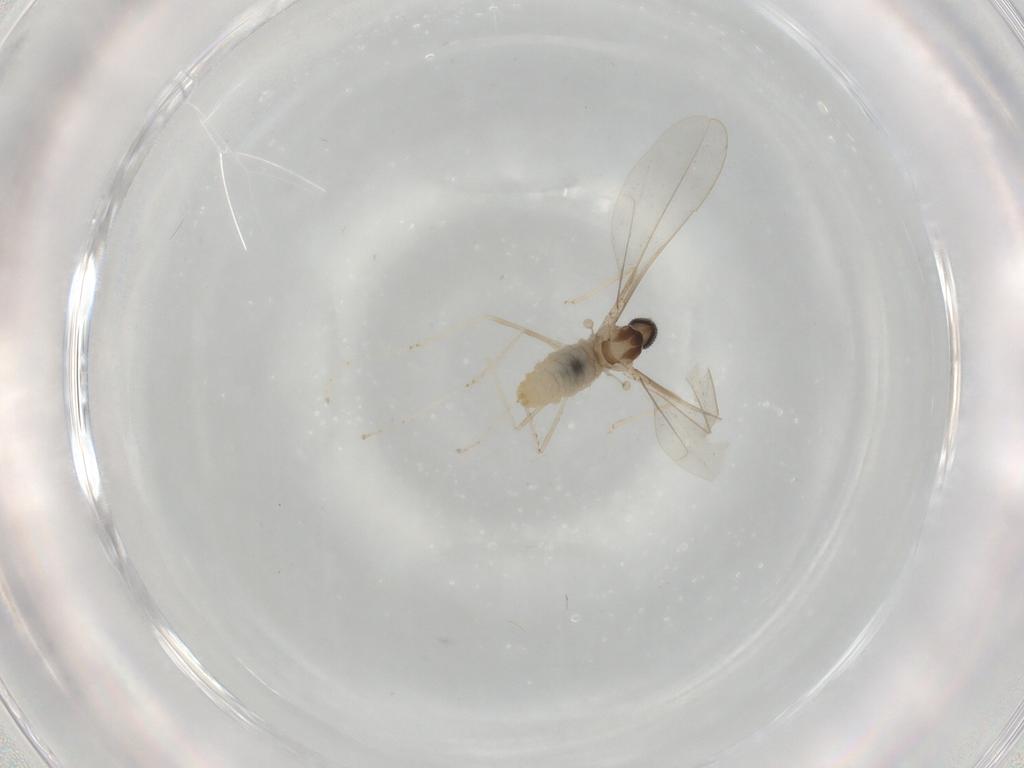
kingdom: Animalia
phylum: Arthropoda
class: Insecta
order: Diptera
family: Cecidomyiidae
